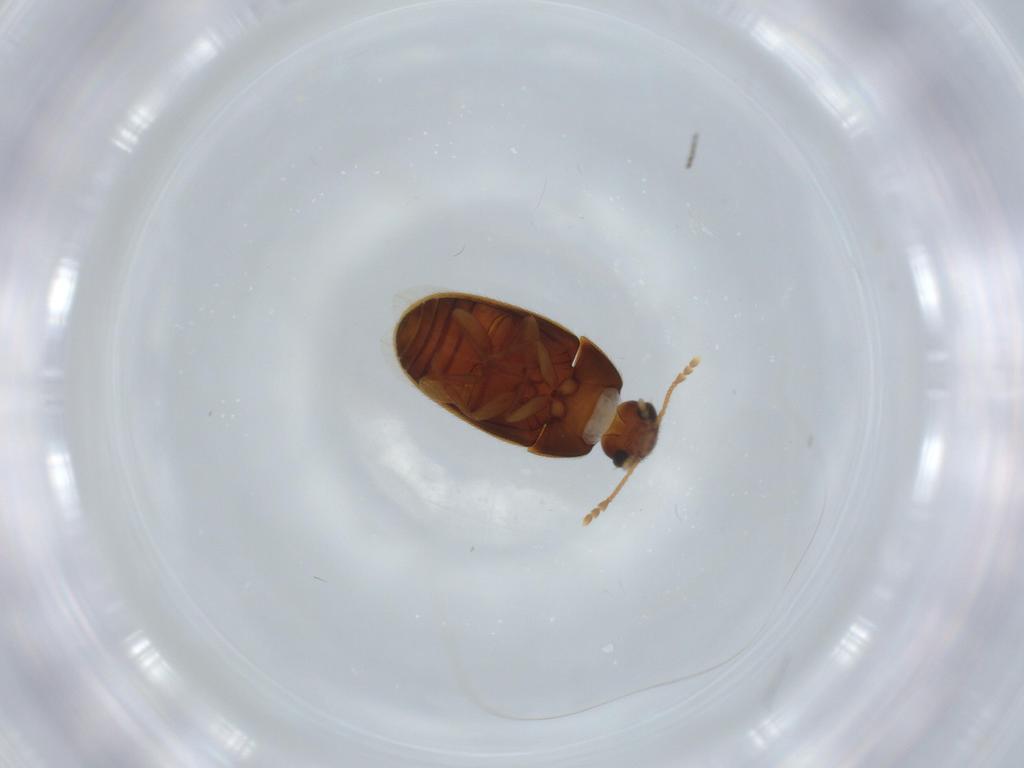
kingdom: Animalia
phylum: Arthropoda
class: Insecta
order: Coleoptera
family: Mycetophagidae
